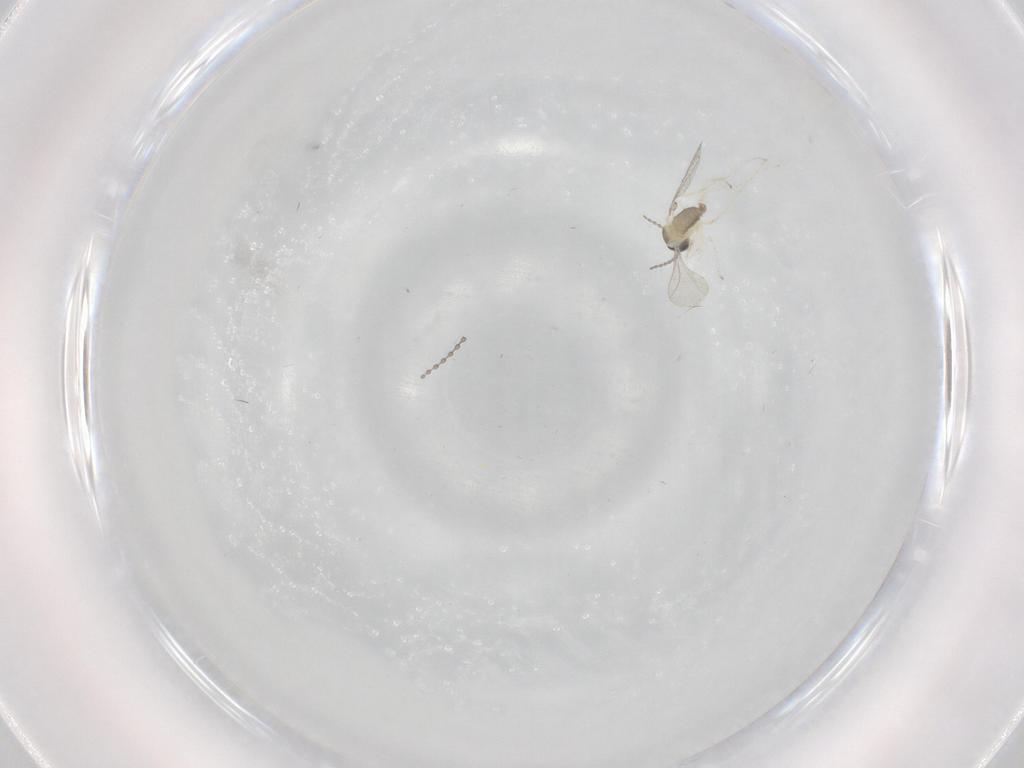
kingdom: Animalia
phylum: Arthropoda
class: Insecta
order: Diptera
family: Cecidomyiidae
